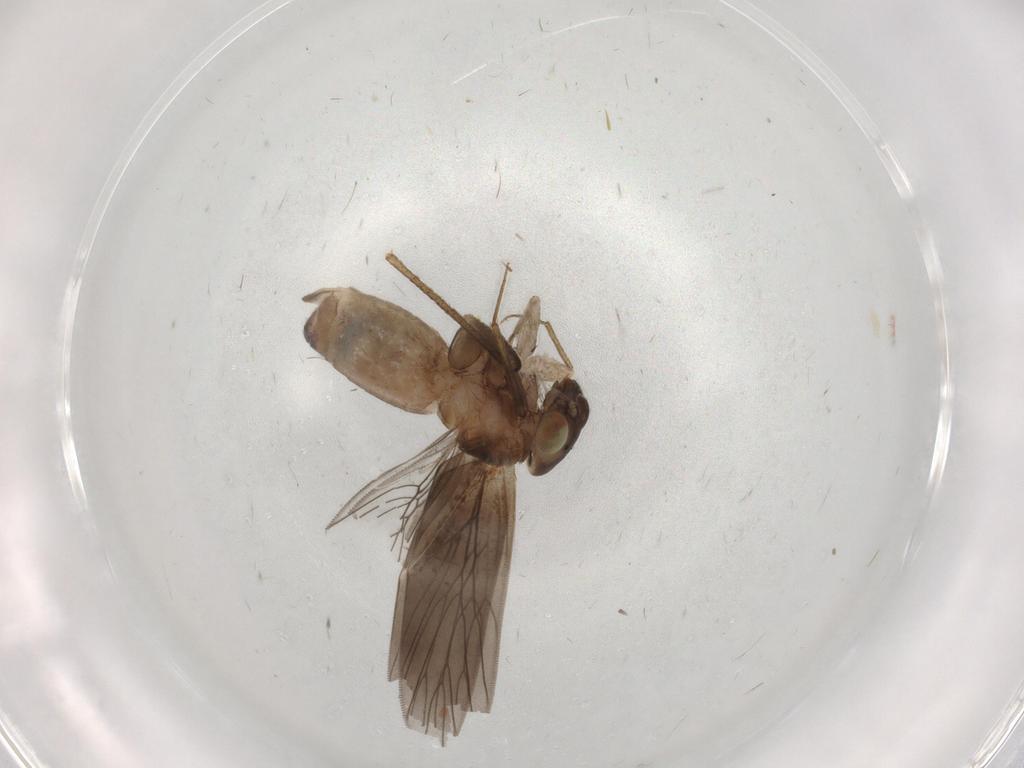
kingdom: Animalia
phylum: Arthropoda
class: Insecta
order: Psocodea
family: Lepidopsocidae
